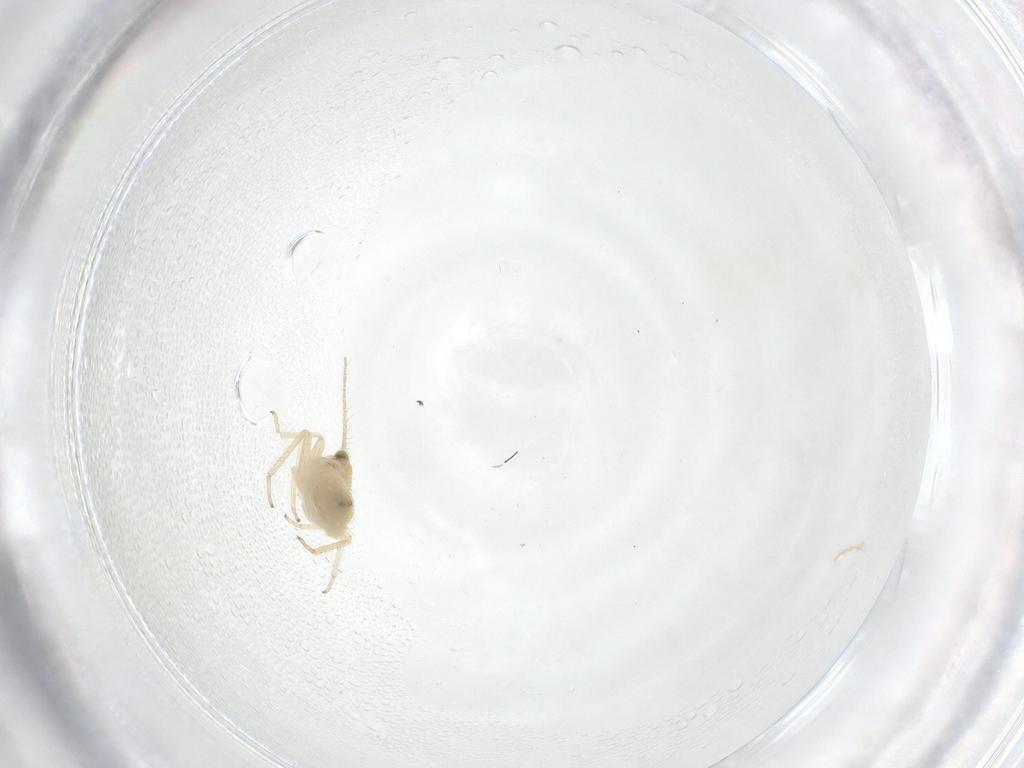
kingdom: Animalia
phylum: Arthropoda
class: Insecta
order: Psocodea
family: Pseudocaeciliidae
